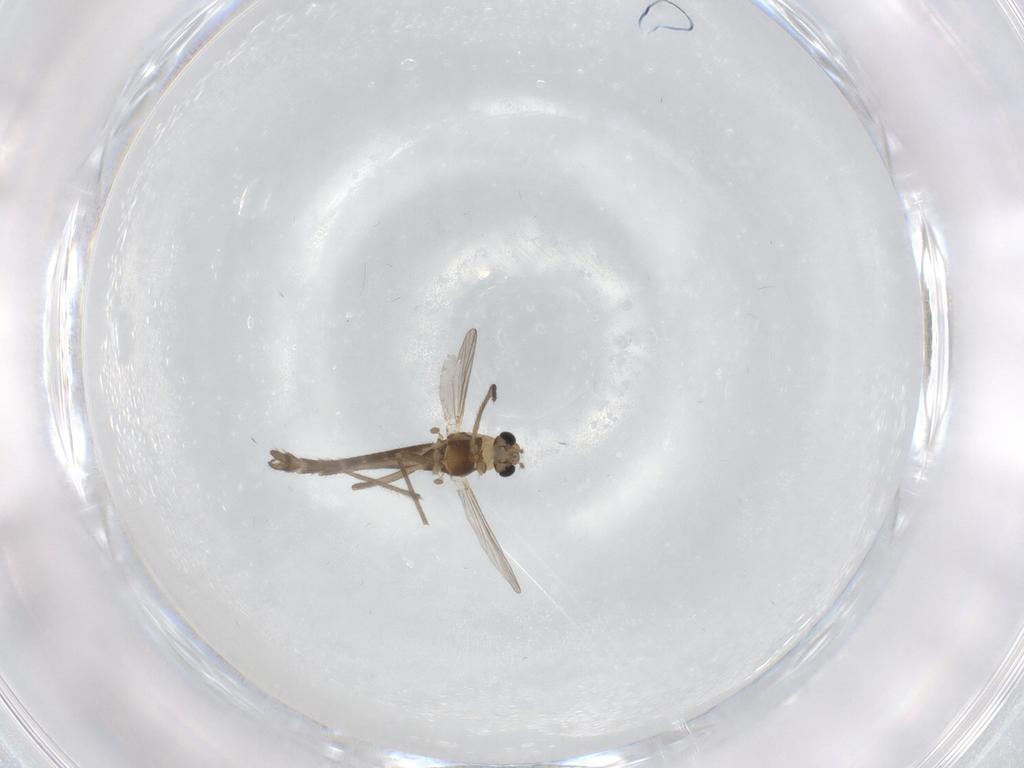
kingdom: Animalia
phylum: Arthropoda
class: Insecta
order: Diptera
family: Chironomidae
